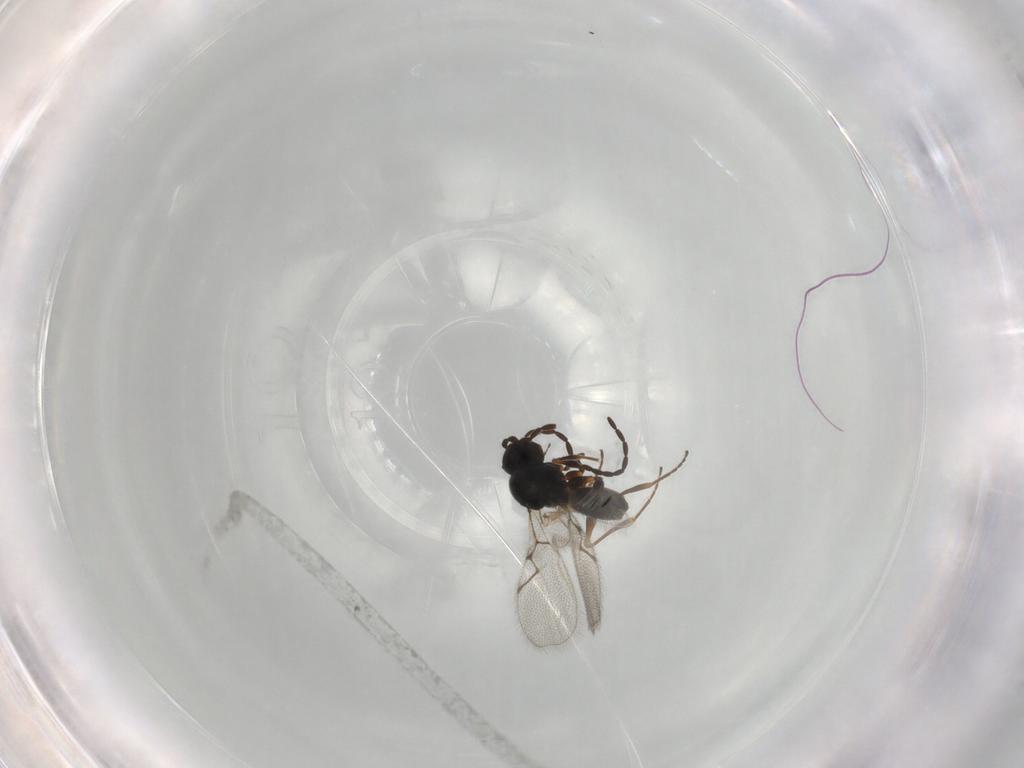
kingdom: Animalia
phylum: Arthropoda
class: Insecta
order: Hymenoptera
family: Figitidae
